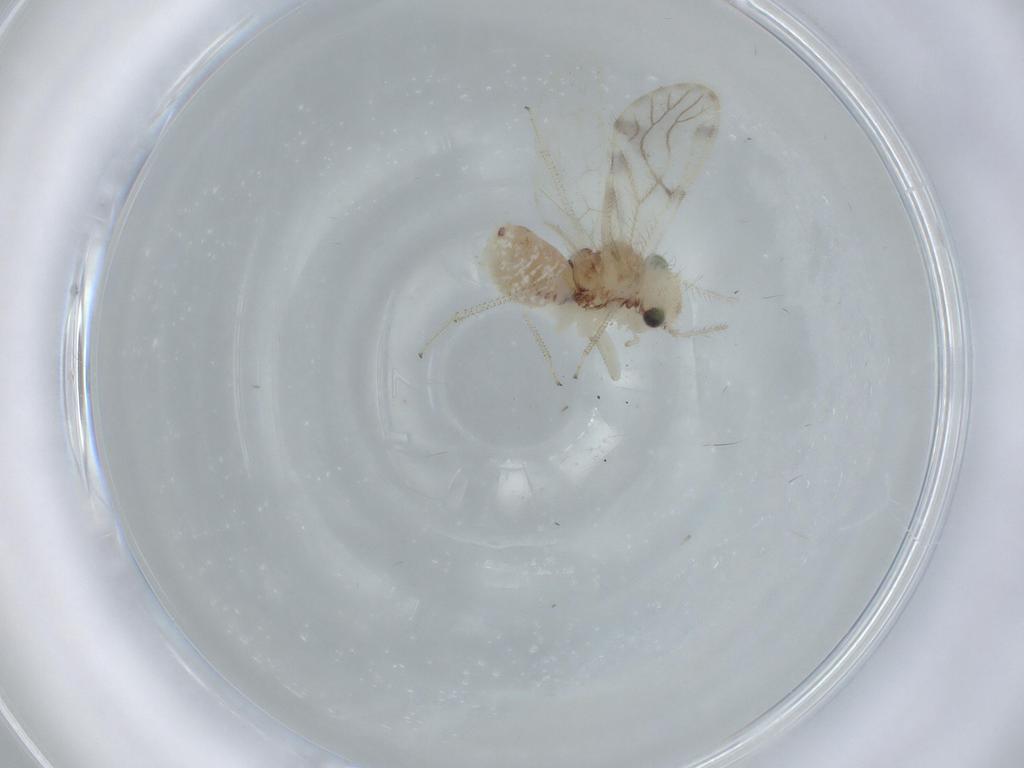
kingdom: Animalia
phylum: Arthropoda
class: Insecta
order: Psocodea
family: Pseudocaeciliidae
